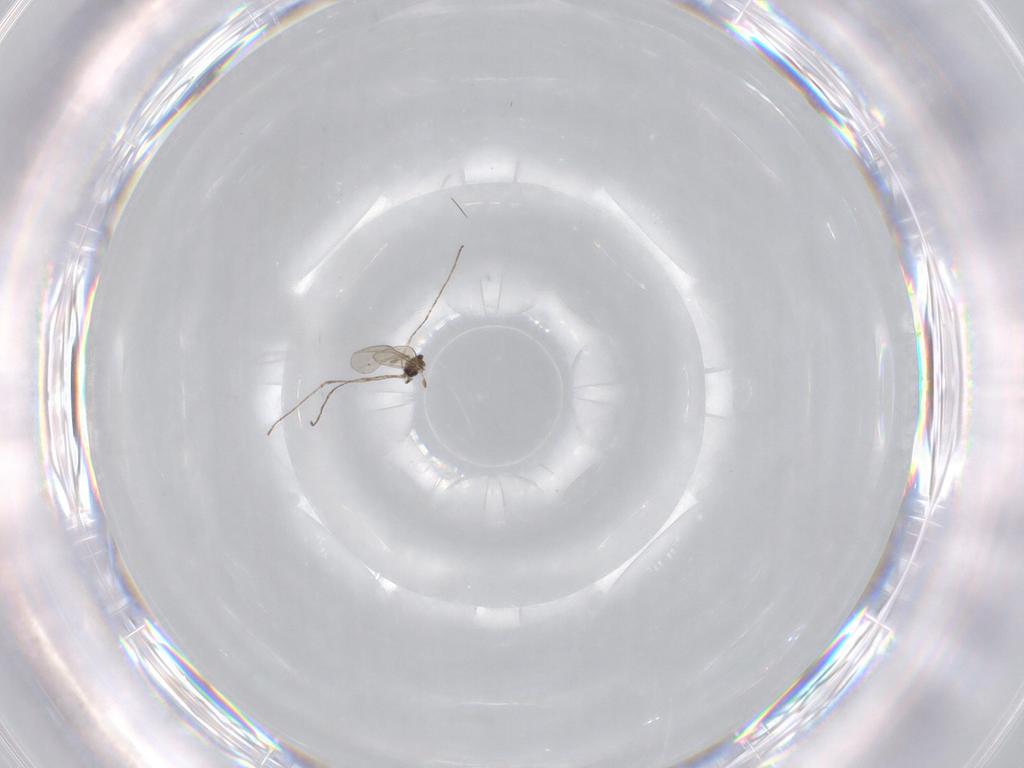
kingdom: Animalia
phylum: Arthropoda
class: Insecta
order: Diptera
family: Cecidomyiidae
